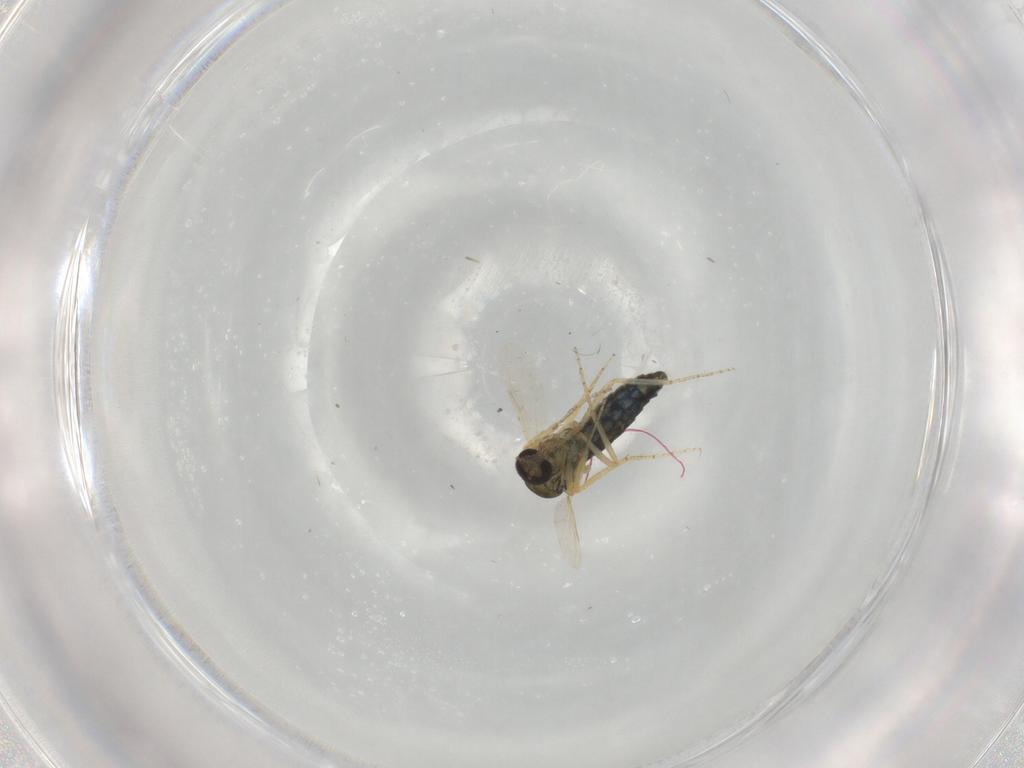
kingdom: Animalia
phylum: Arthropoda
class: Insecta
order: Diptera
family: Ceratopogonidae
